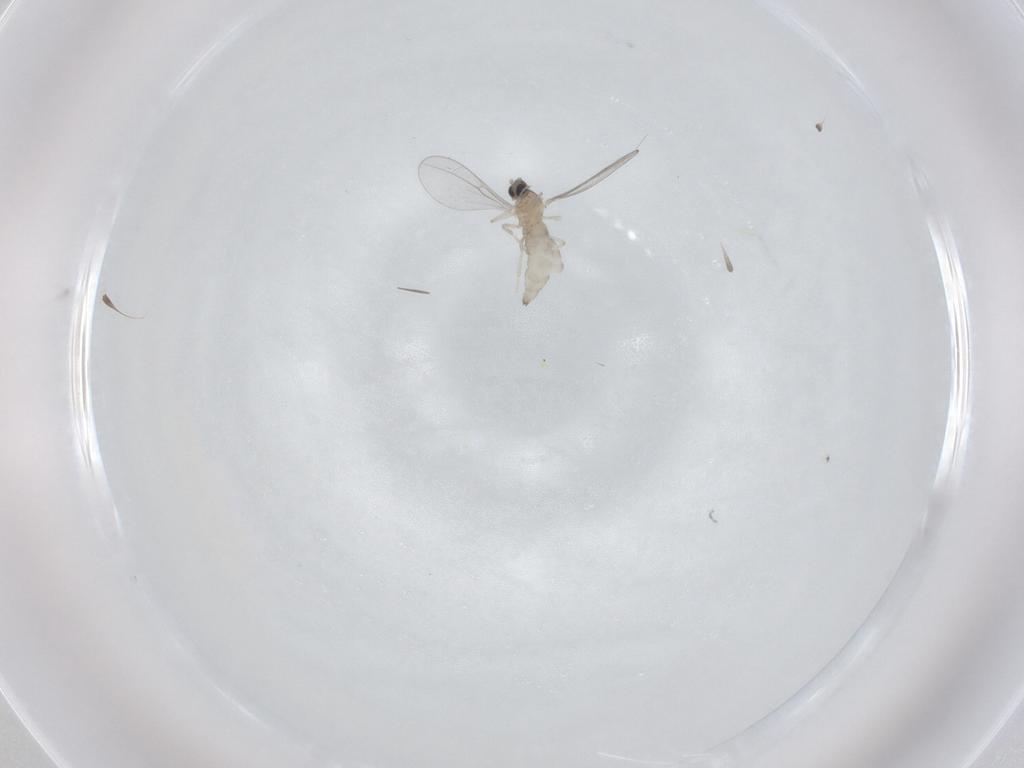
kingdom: Animalia
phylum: Arthropoda
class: Insecta
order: Diptera
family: Cecidomyiidae
